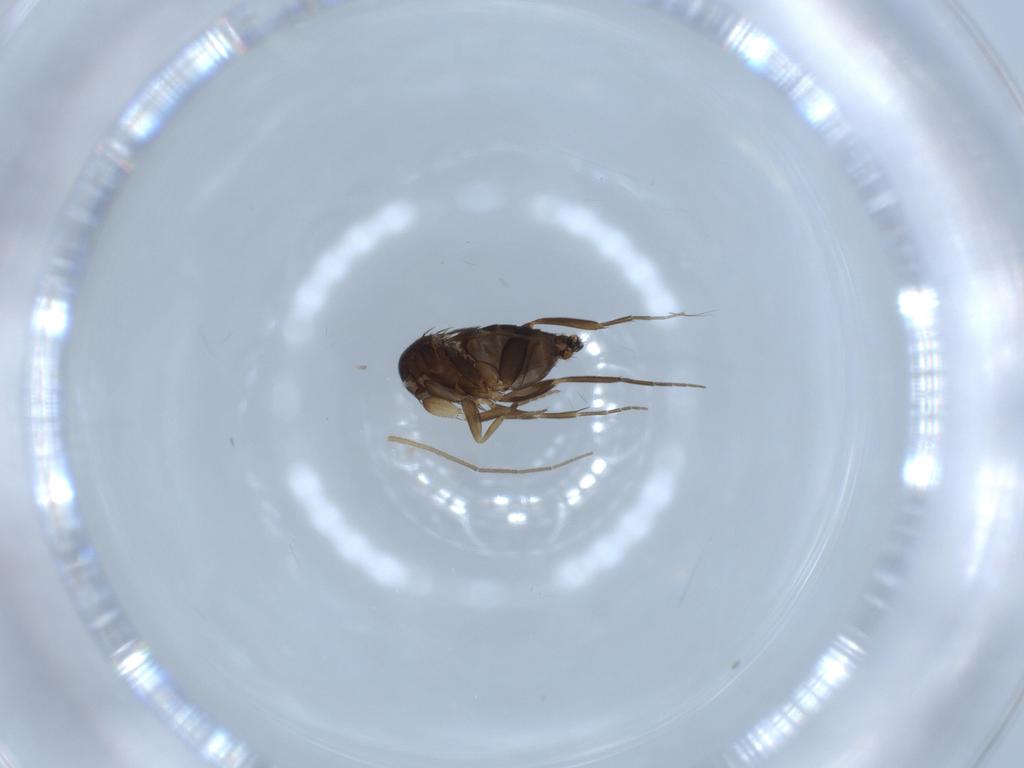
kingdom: Animalia
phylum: Arthropoda
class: Insecta
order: Diptera
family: Phoridae
